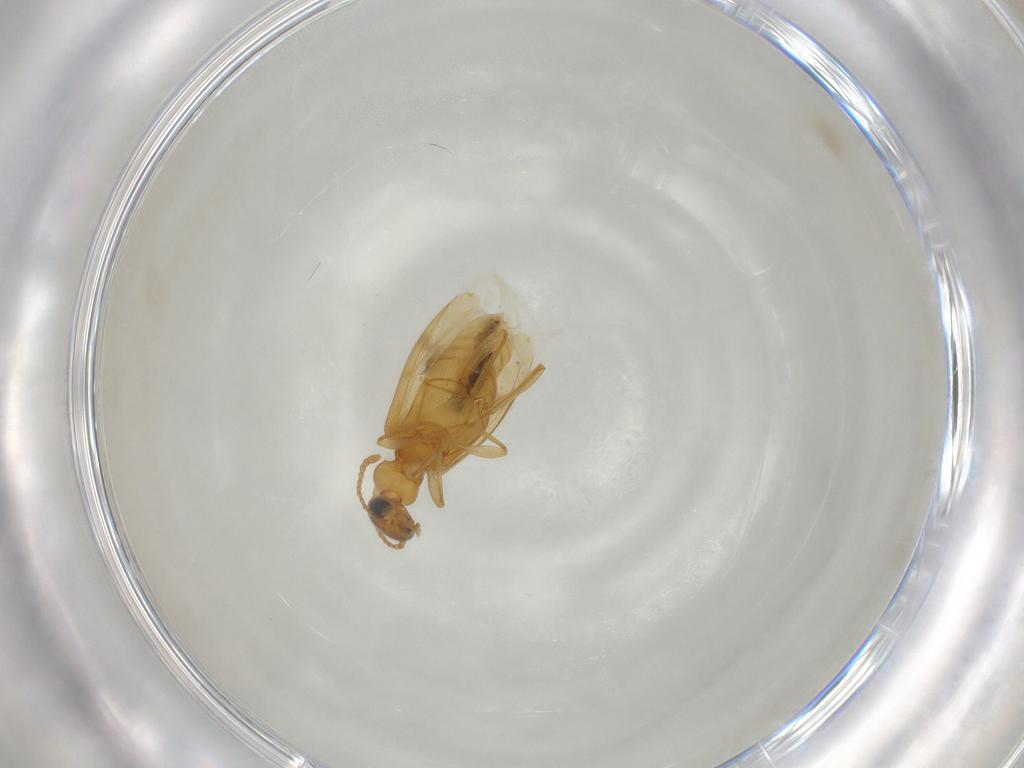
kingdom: Animalia
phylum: Arthropoda
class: Insecta
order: Coleoptera
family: Anthicidae
